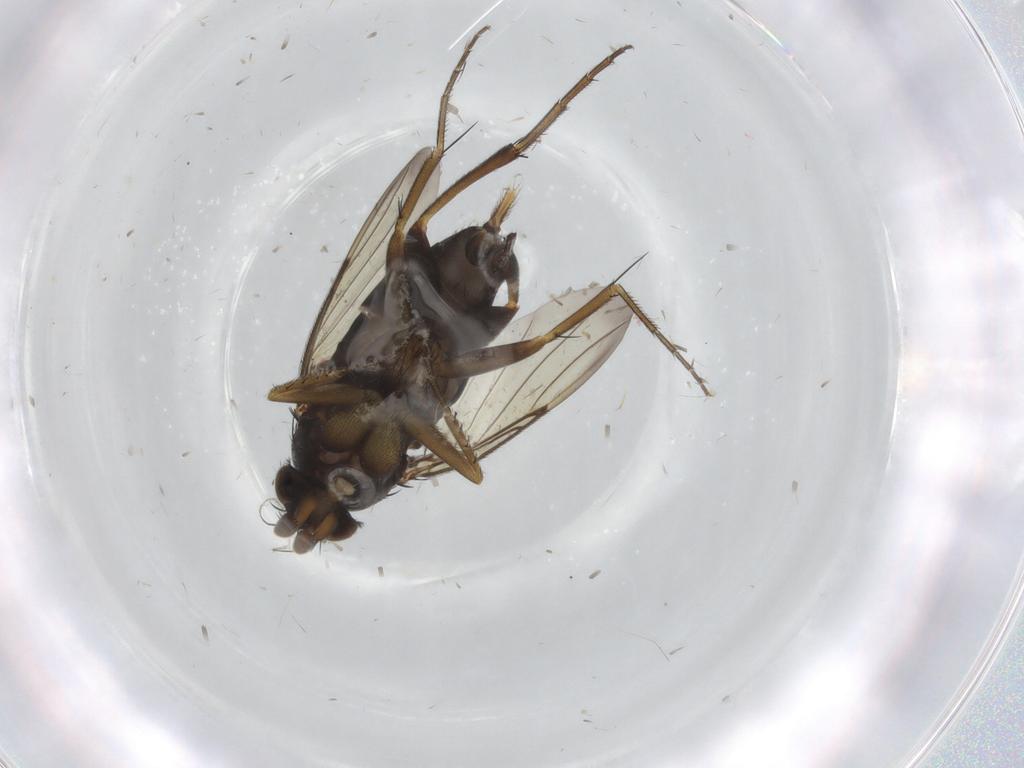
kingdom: Animalia
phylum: Arthropoda
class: Insecta
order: Diptera
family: Phoridae
